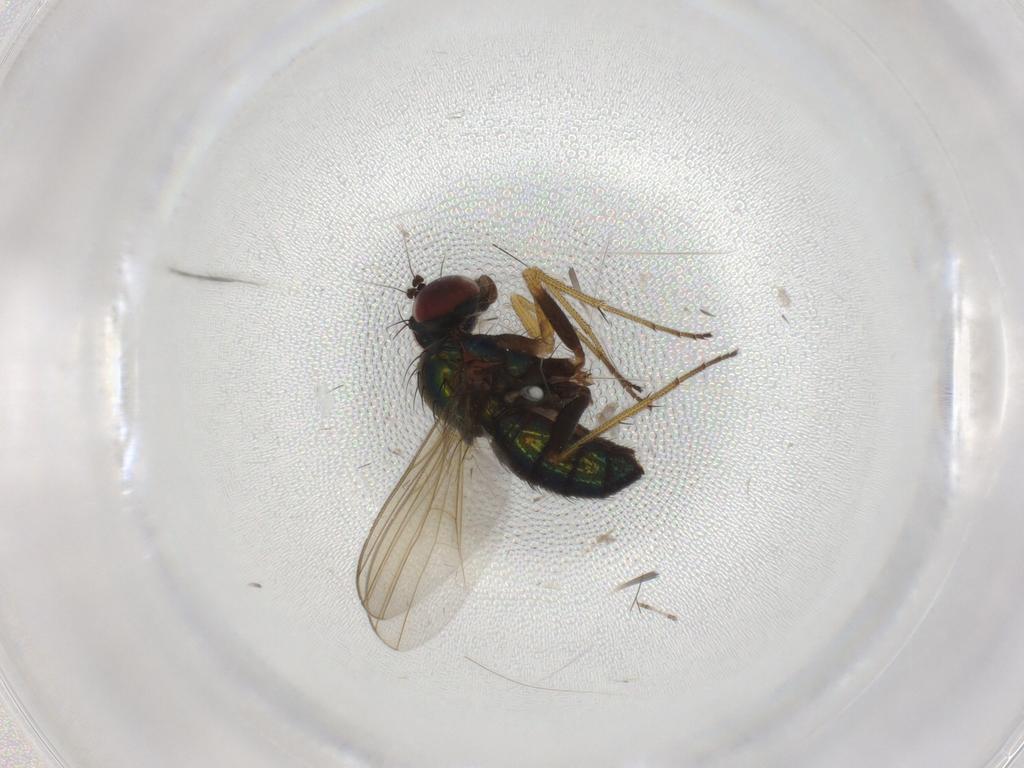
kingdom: Animalia
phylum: Arthropoda
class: Insecta
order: Diptera
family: Dolichopodidae
